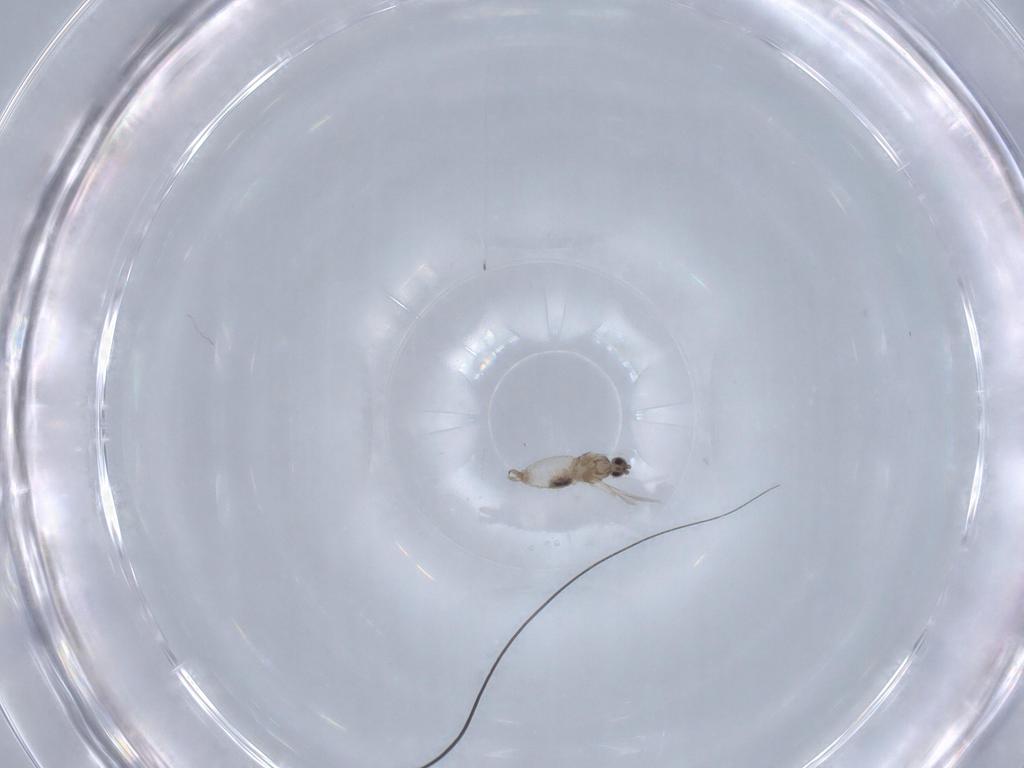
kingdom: Animalia
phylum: Arthropoda
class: Insecta
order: Diptera
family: Cecidomyiidae
